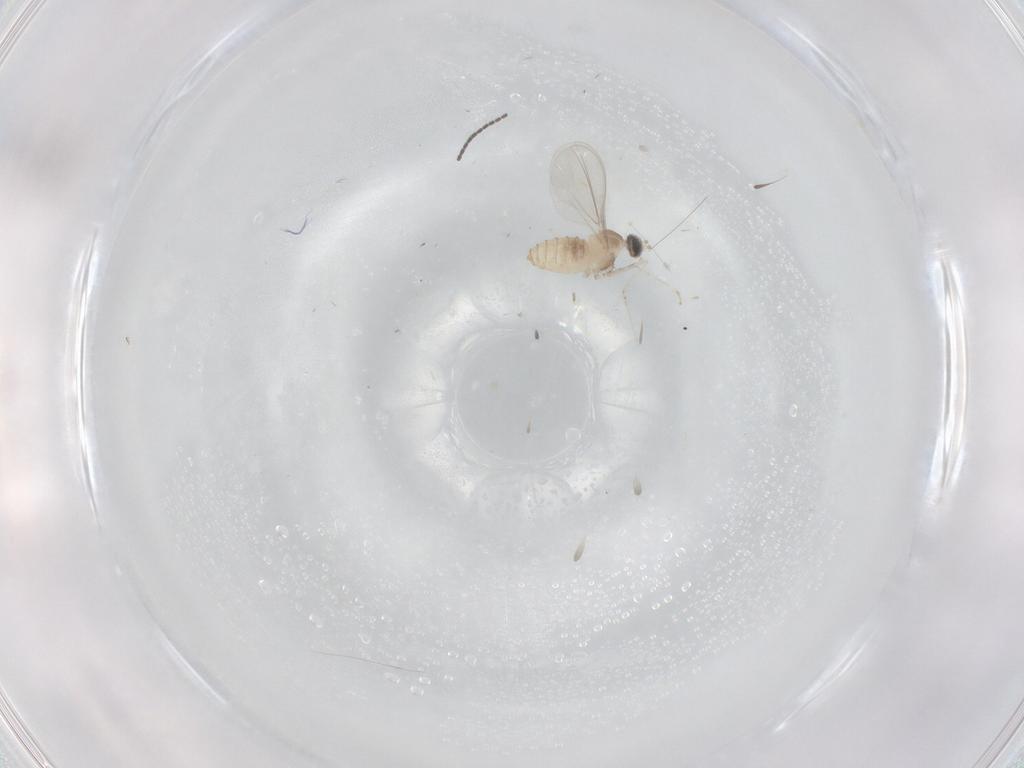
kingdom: Animalia
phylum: Arthropoda
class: Insecta
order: Diptera
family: Sciaridae
